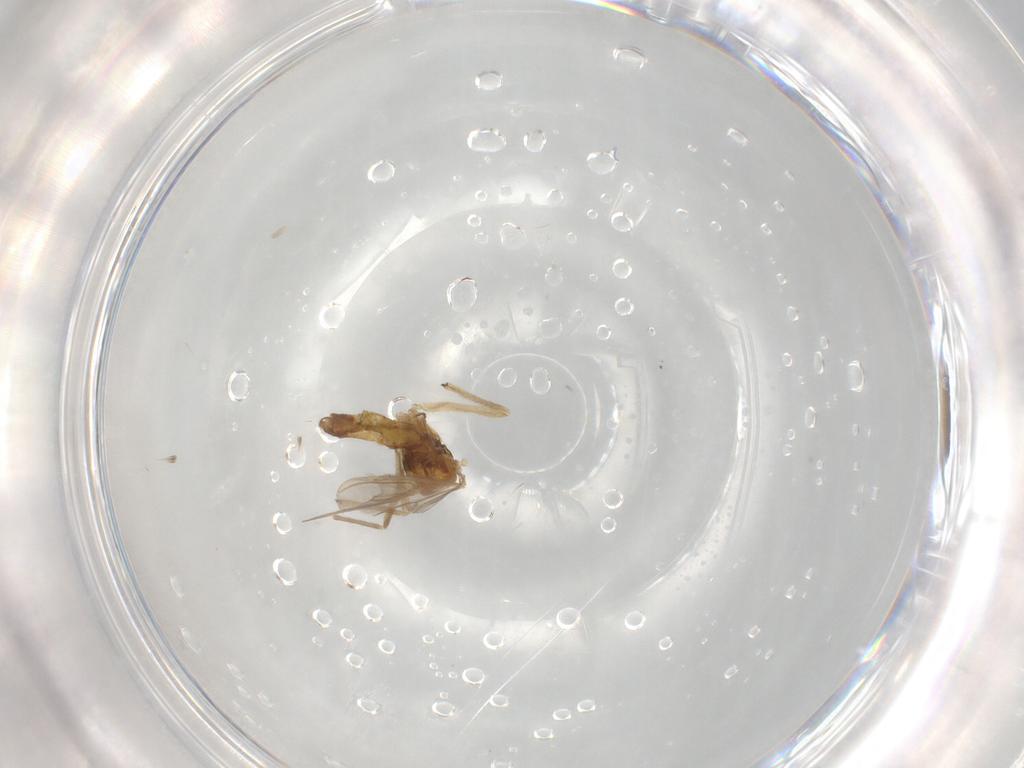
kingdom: Animalia
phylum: Arthropoda
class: Insecta
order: Diptera
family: Chironomidae
